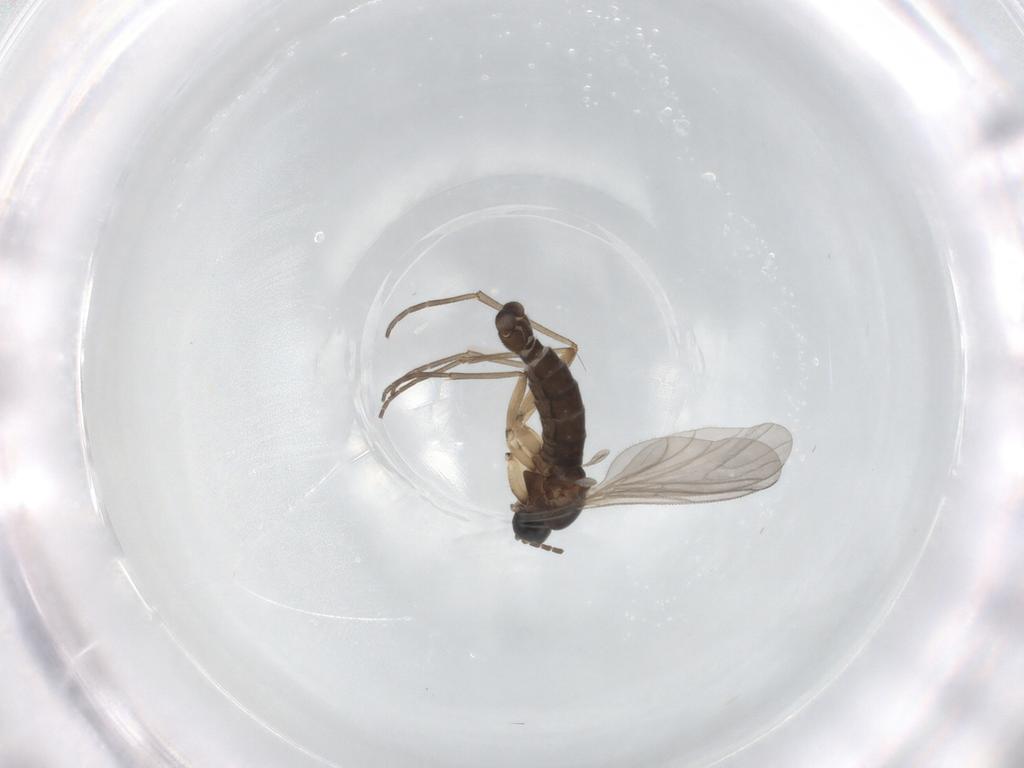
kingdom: Animalia
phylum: Arthropoda
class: Insecta
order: Diptera
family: Sciaridae
